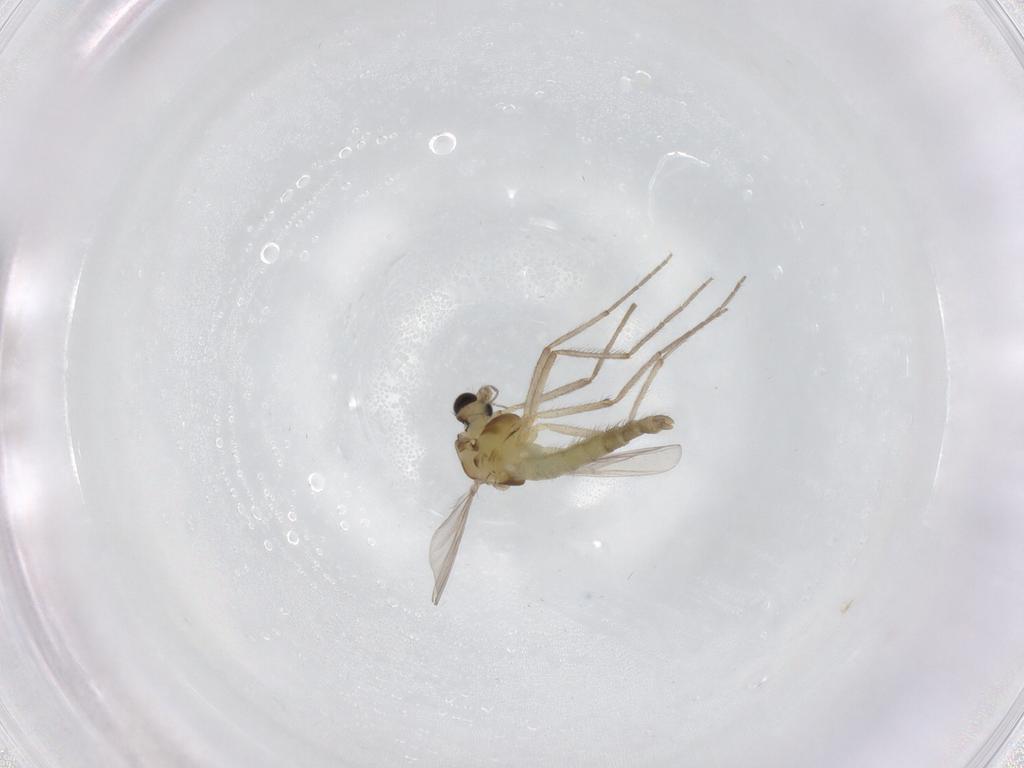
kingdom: Animalia
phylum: Arthropoda
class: Insecta
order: Diptera
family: Chironomidae
